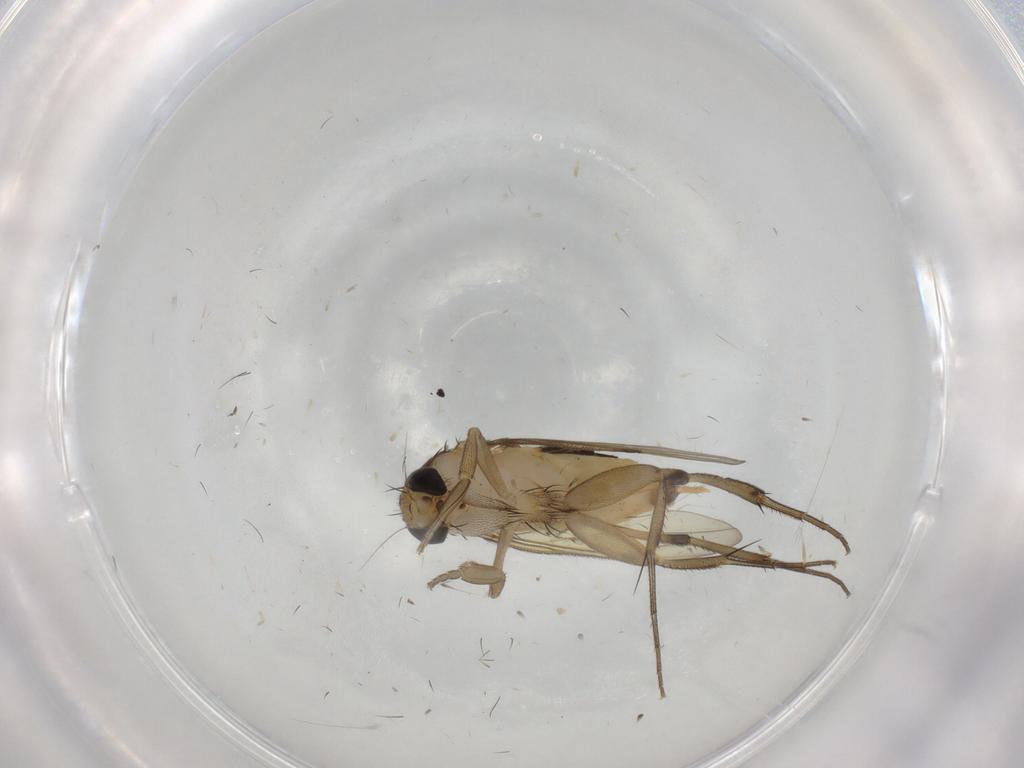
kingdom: Animalia
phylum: Arthropoda
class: Insecta
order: Diptera
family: Phoridae
